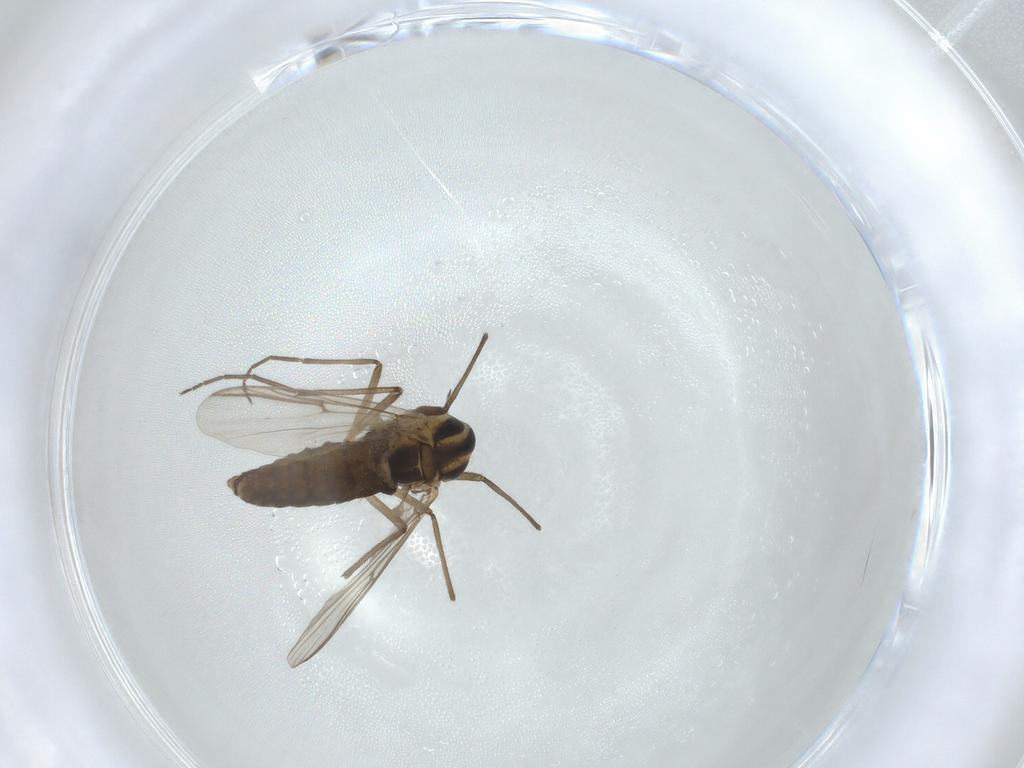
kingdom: Animalia
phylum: Arthropoda
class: Insecta
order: Diptera
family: Chironomidae
